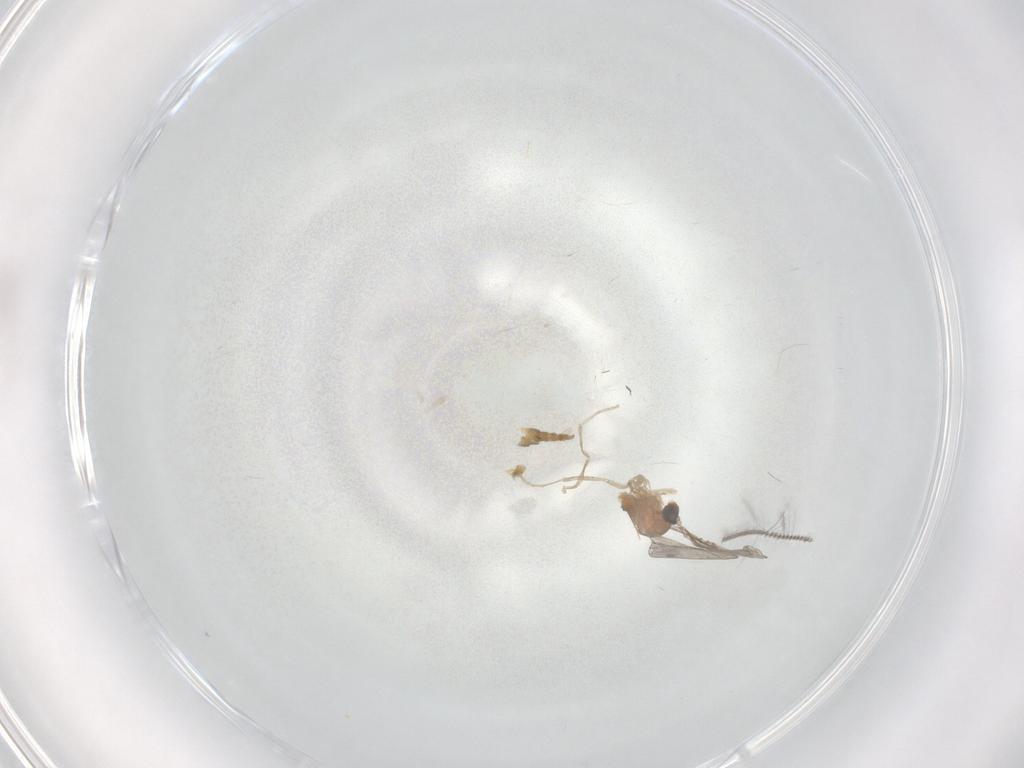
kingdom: Animalia
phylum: Arthropoda
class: Insecta
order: Diptera
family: Cecidomyiidae
